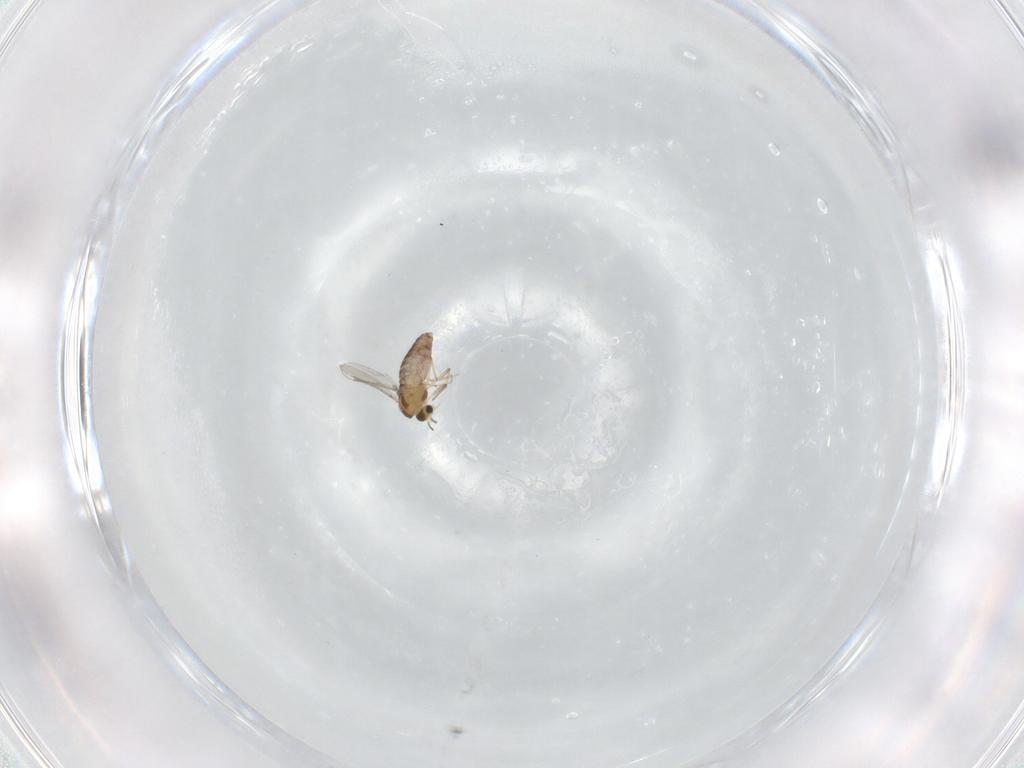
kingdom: Animalia
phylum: Arthropoda
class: Insecta
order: Diptera
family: Chironomidae
